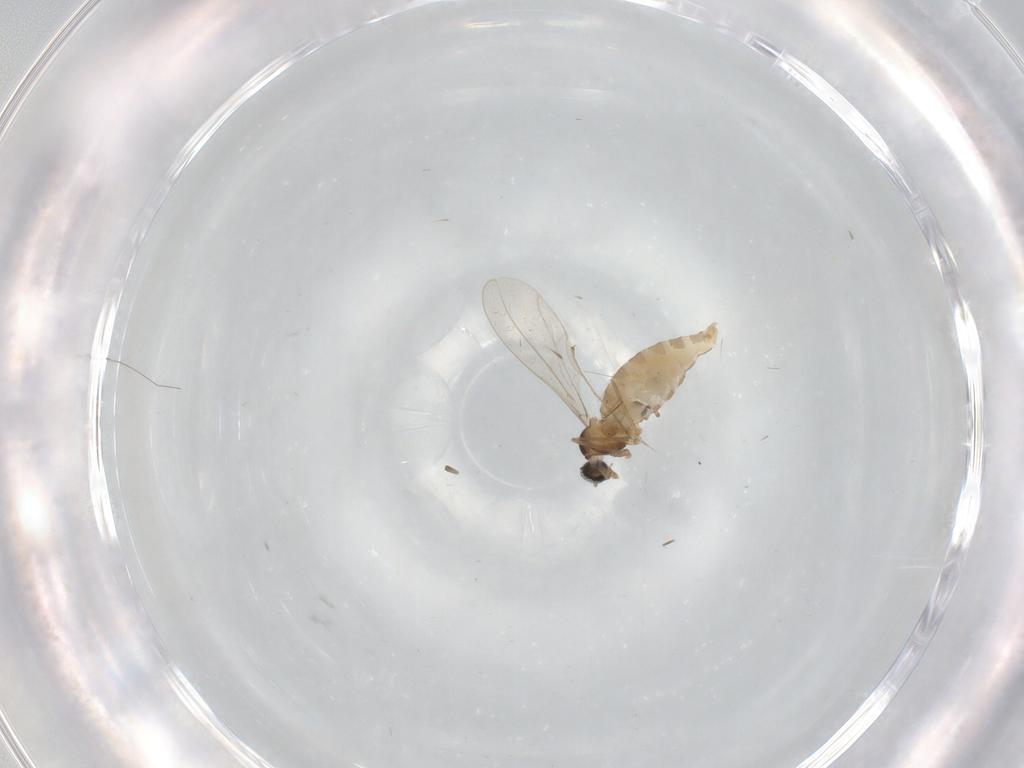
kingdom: Animalia
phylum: Arthropoda
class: Insecta
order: Diptera
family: Cecidomyiidae
